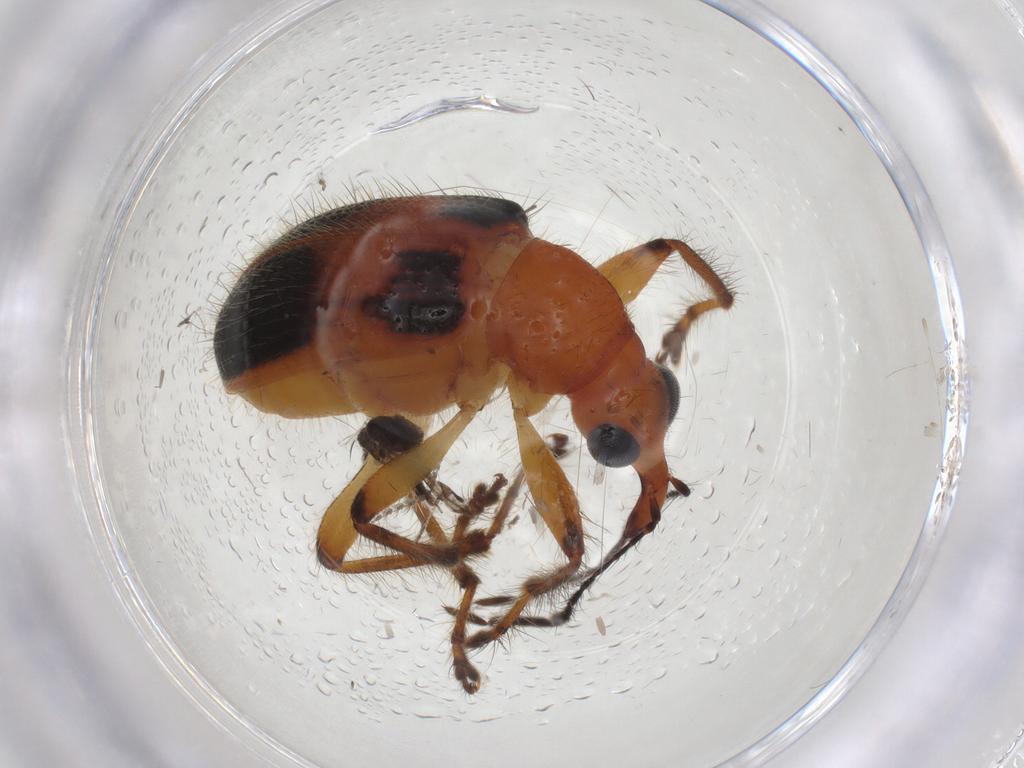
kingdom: Animalia
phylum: Arthropoda
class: Insecta
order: Coleoptera
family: Attelabidae
